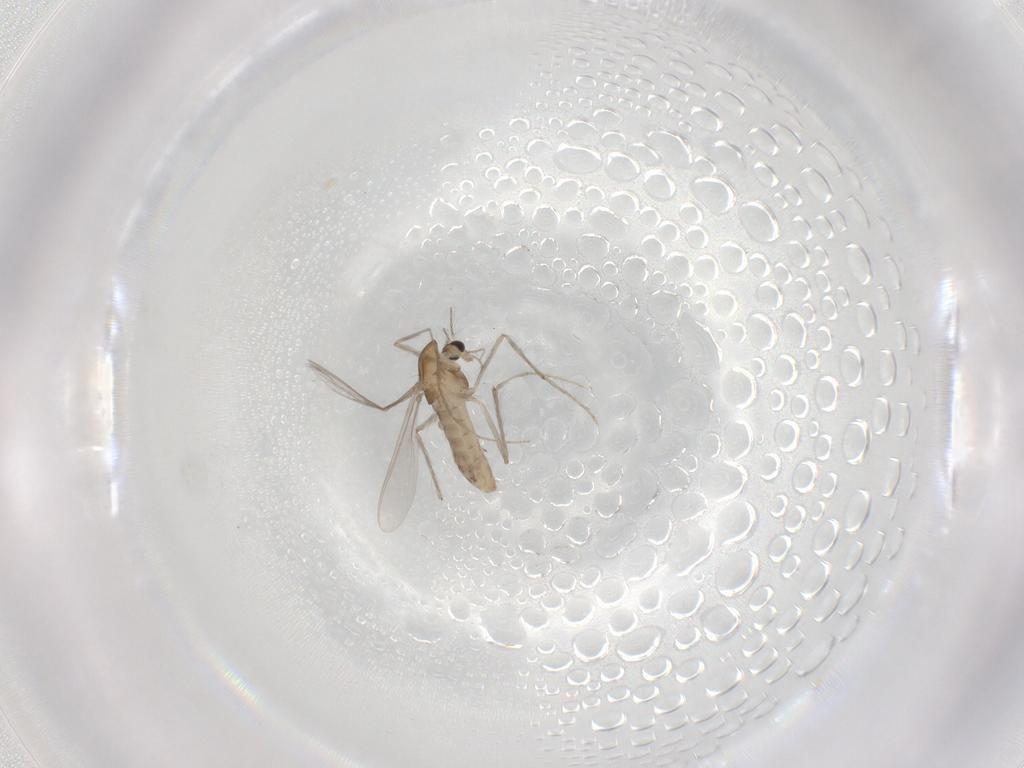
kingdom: Animalia
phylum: Arthropoda
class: Insecta
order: Diptera
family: Chironomidae
